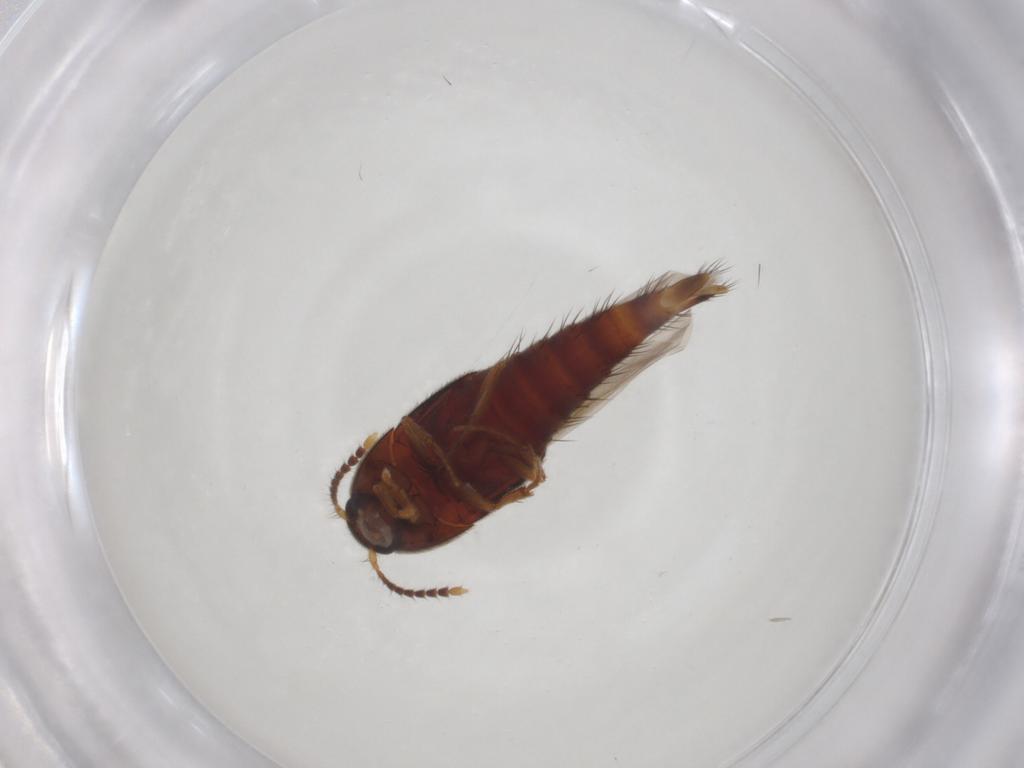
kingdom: Animalia
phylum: Arthropoda
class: Insecta
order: Coleoptera
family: Staphylinidae
